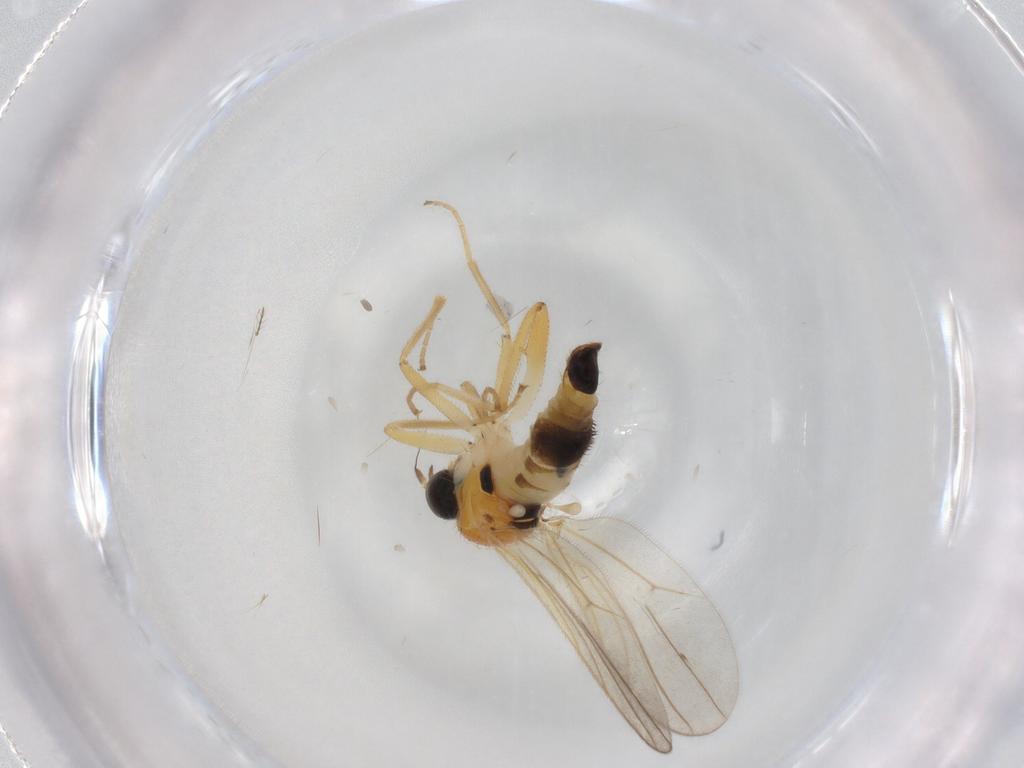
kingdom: Animalia
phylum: Arthropoda
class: Insecta
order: Diptera
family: Hybotidae
